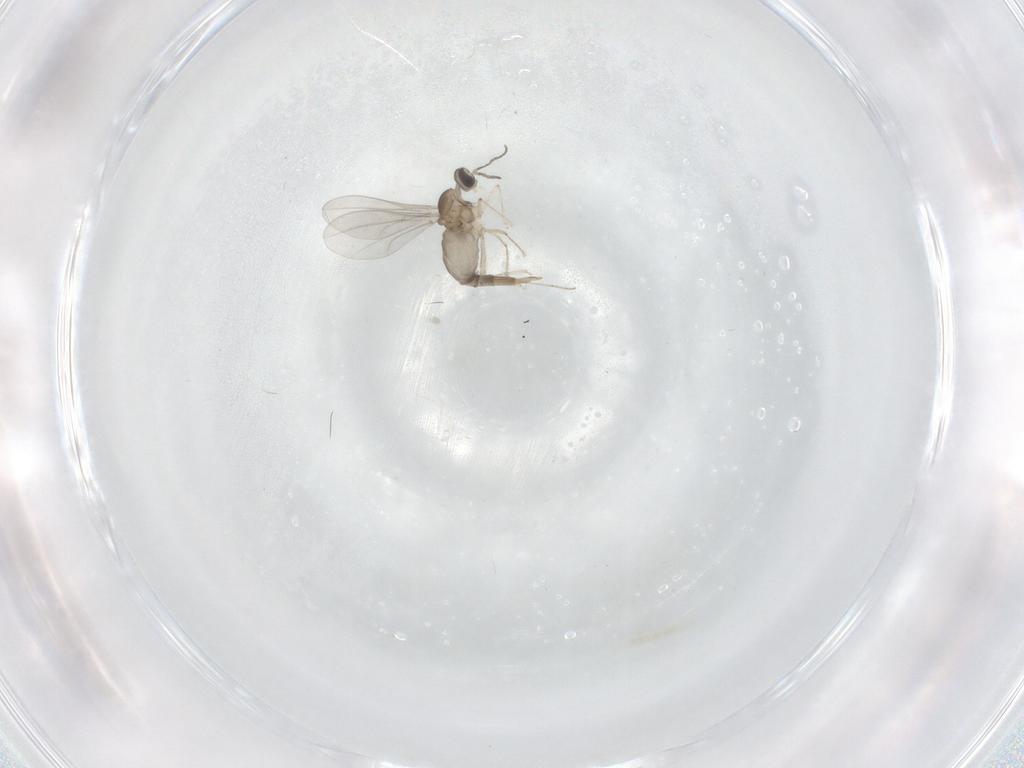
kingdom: Animalia
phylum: Arthropoda
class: Insecta
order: Diptera
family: Cecidomyiidae
